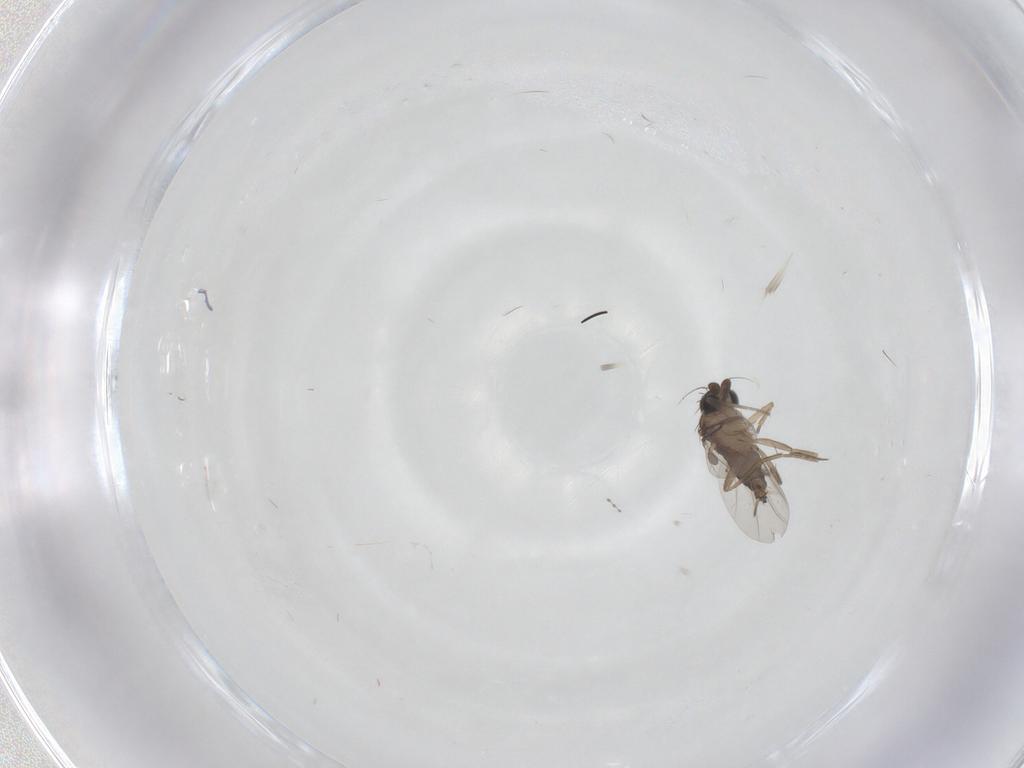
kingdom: Animalia
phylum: Arthropoda
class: Insecta
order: Diptera
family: Phoridae
